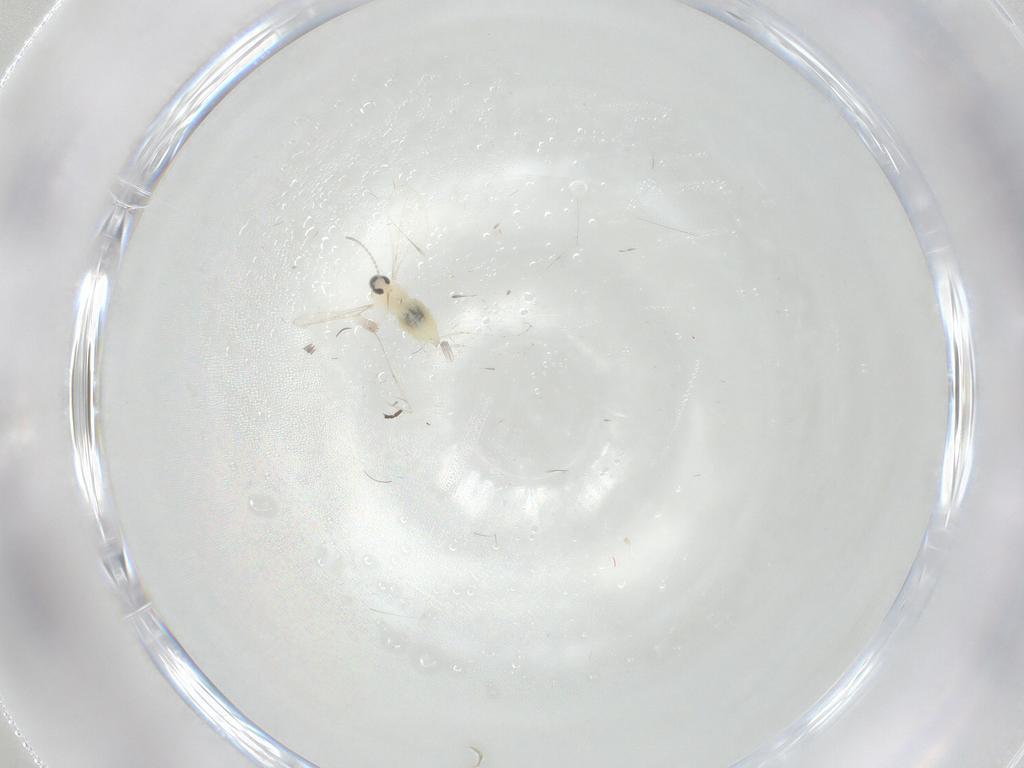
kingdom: Animalia
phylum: Arthropoda
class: Insecta
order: Diptera
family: Cecidomyiidae
